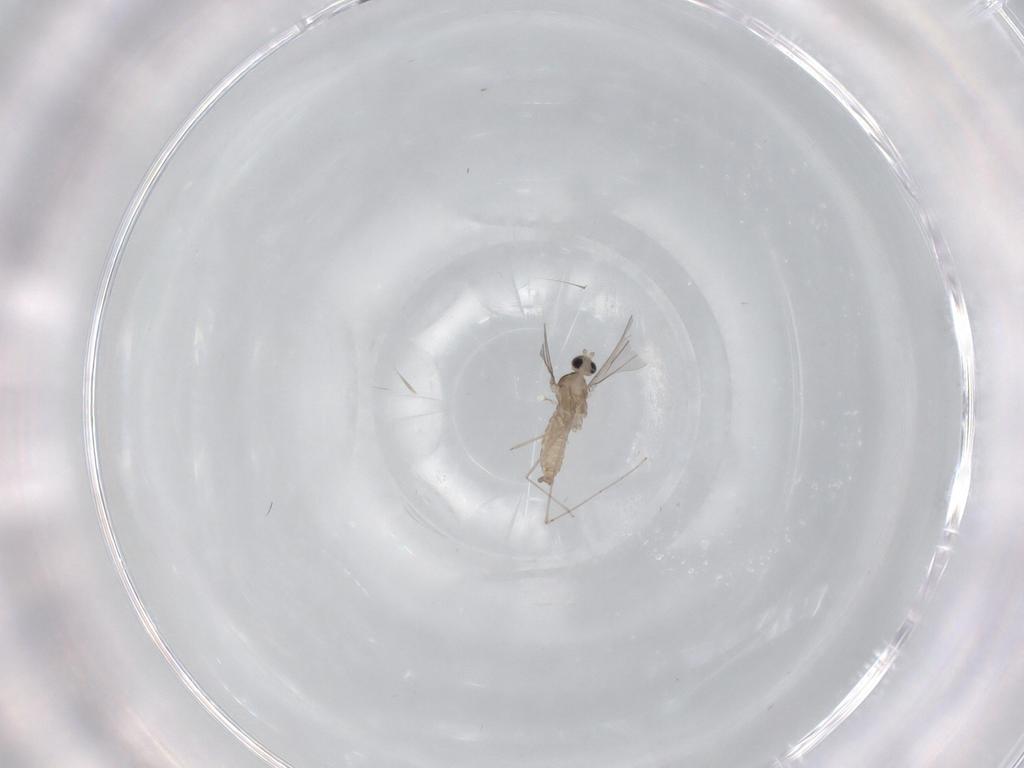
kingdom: Animalia
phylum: Arthropoda
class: Insecta
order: Diptera
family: Cecidomyiidae
